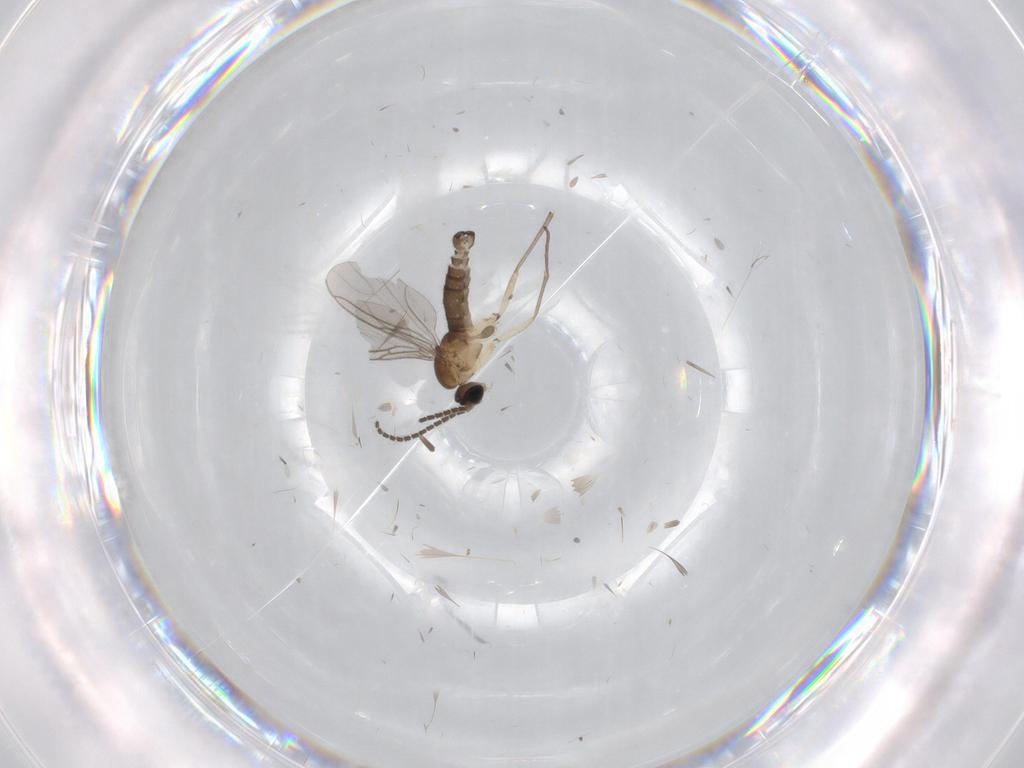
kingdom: Animalia
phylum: Arthropoda
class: Insecta
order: Diptera
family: Sciaridae
